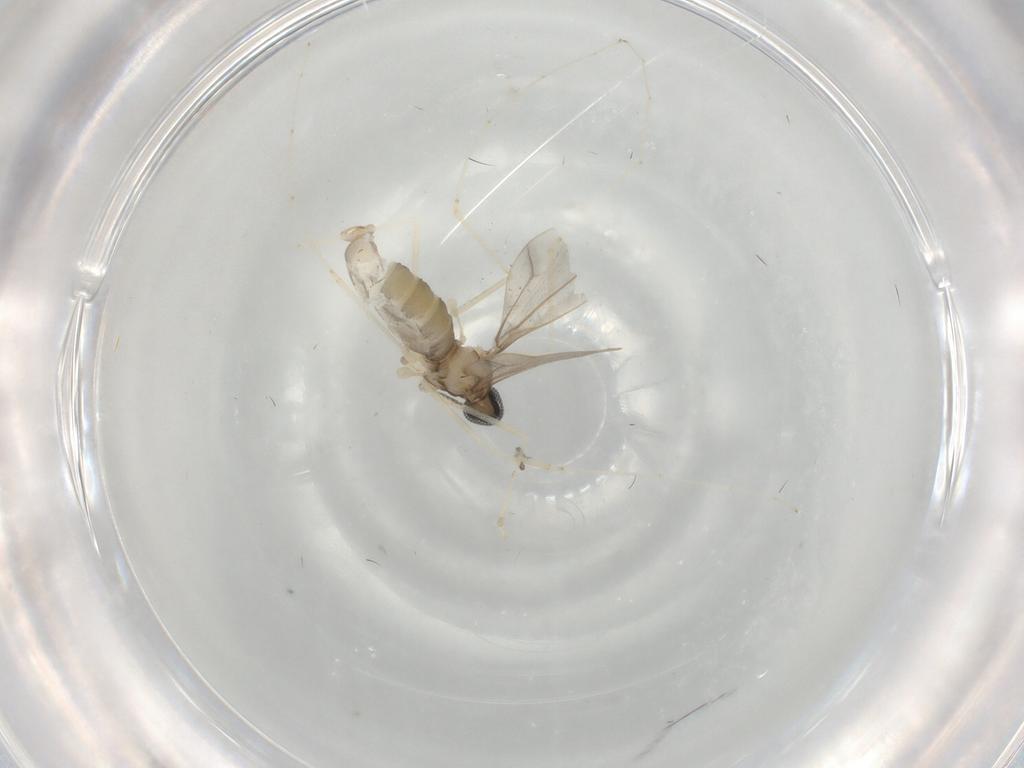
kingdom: Animalia
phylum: Arthropoda
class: Insecta
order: Diptera
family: Cecidomyiidae
